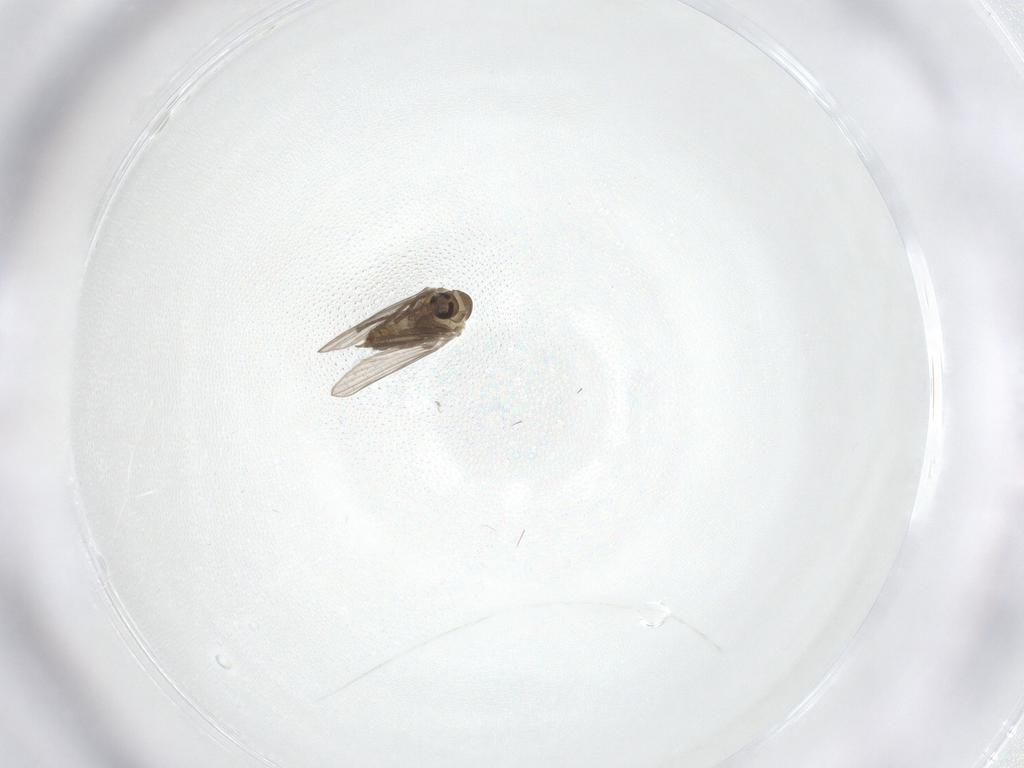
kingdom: Animalia
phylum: Arthropoda
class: Insecta
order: Diptera
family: Psychodidae
